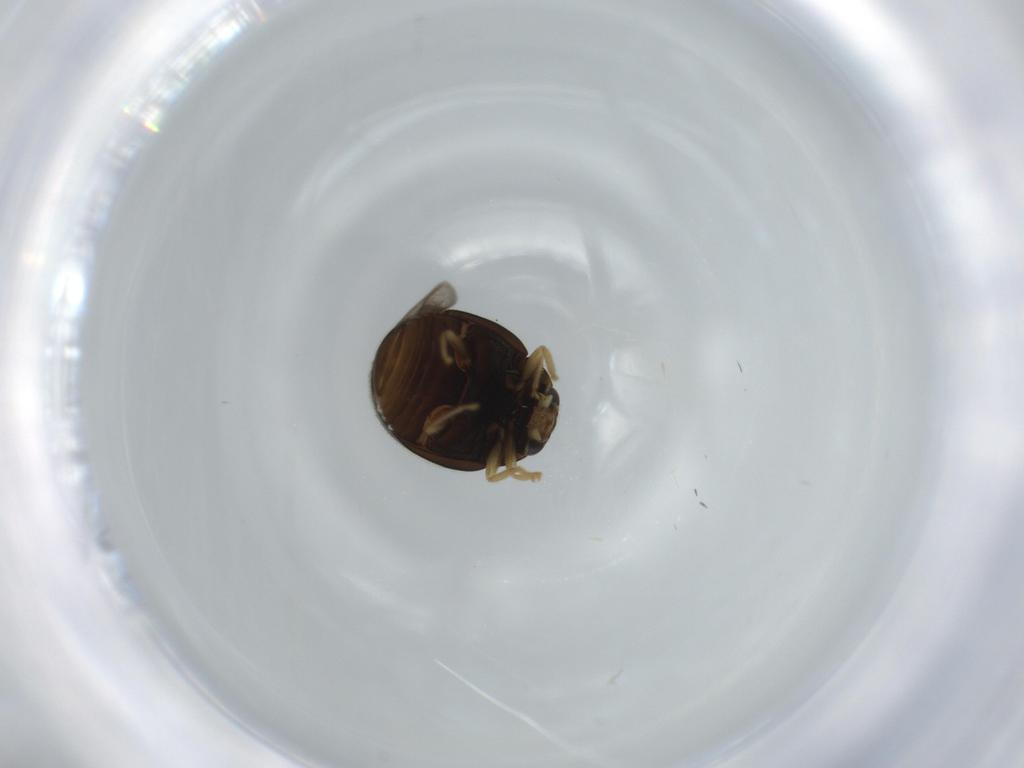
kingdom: Animalia
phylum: Arthropoda
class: Insecta
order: Coleoptera
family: Coccinellidae
